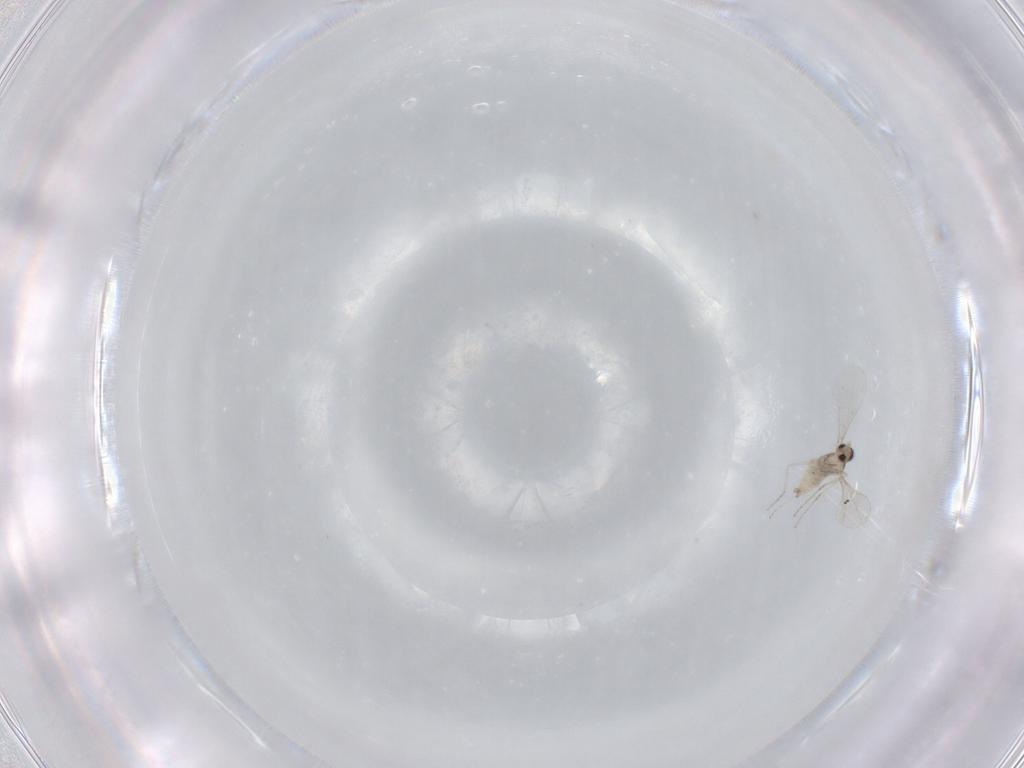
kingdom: Animalia
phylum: Arthropoda
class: Insecta
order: Diptera
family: Cecidomyiidae
